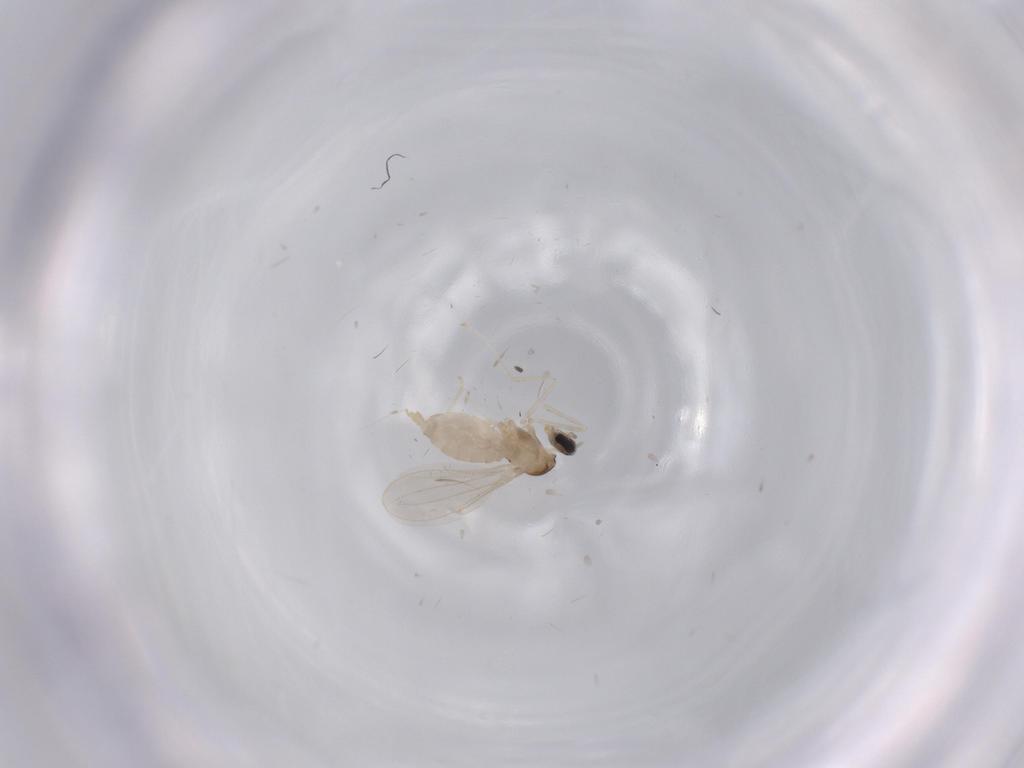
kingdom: Animalia
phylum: Arthropoda
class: Insecta
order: Diptera
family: Cecidomyiidae
